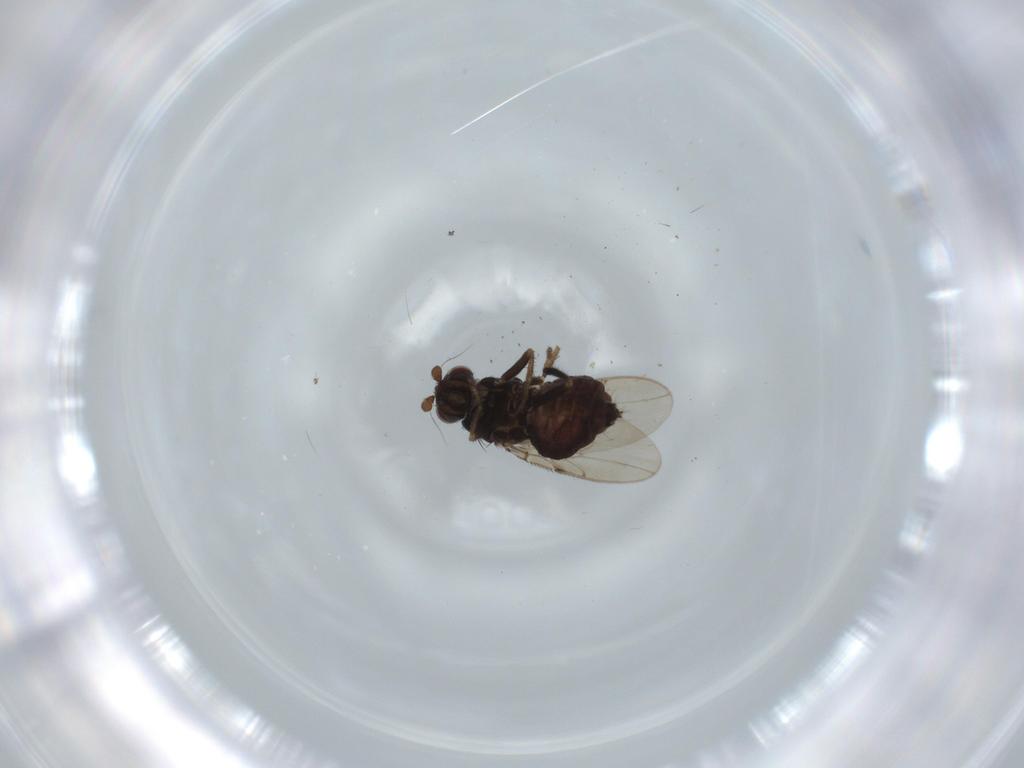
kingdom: Animalia
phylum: Arthropoda
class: Insecta
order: Diptera
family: Sphaeroceridae
